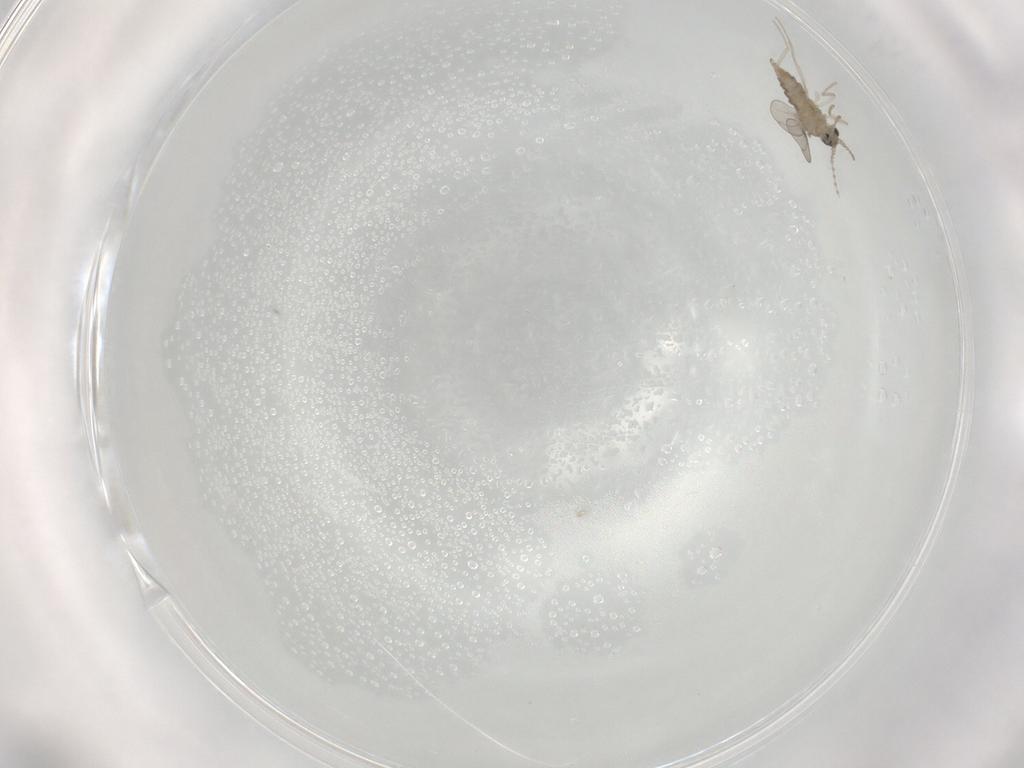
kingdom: Animalia
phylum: Arthropoda
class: Insecta
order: Diptera
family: Cecidomyiidae
